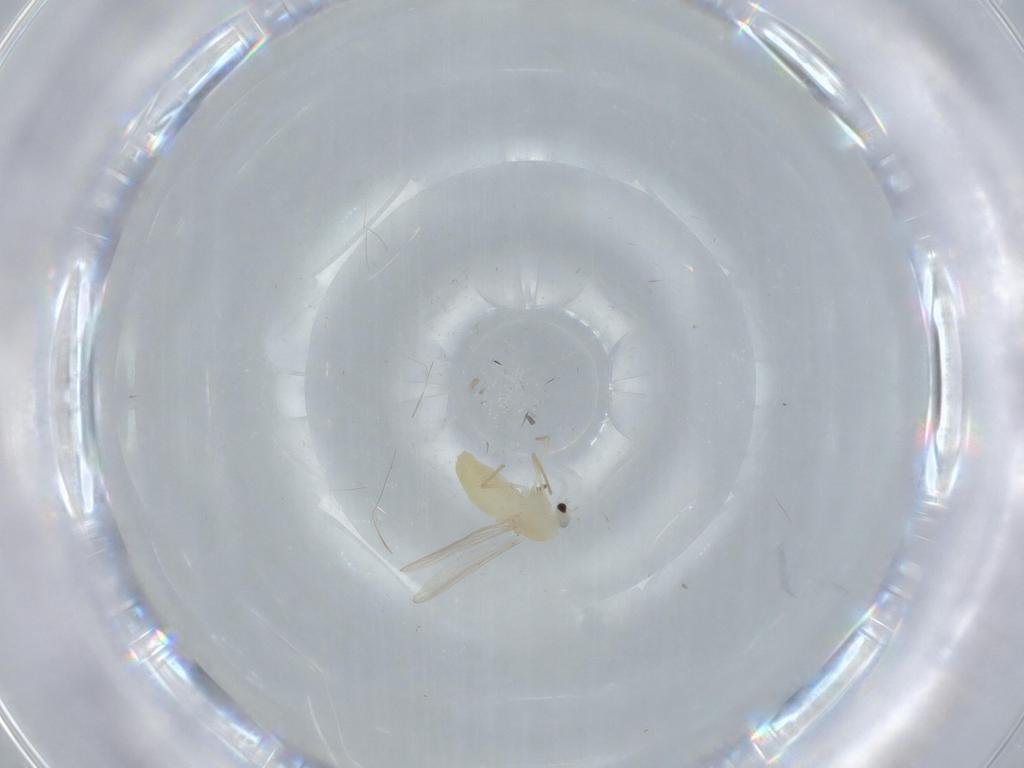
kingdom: Animalia
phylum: Arthropoda
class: Insecta
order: Diptera
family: Chironomidae
